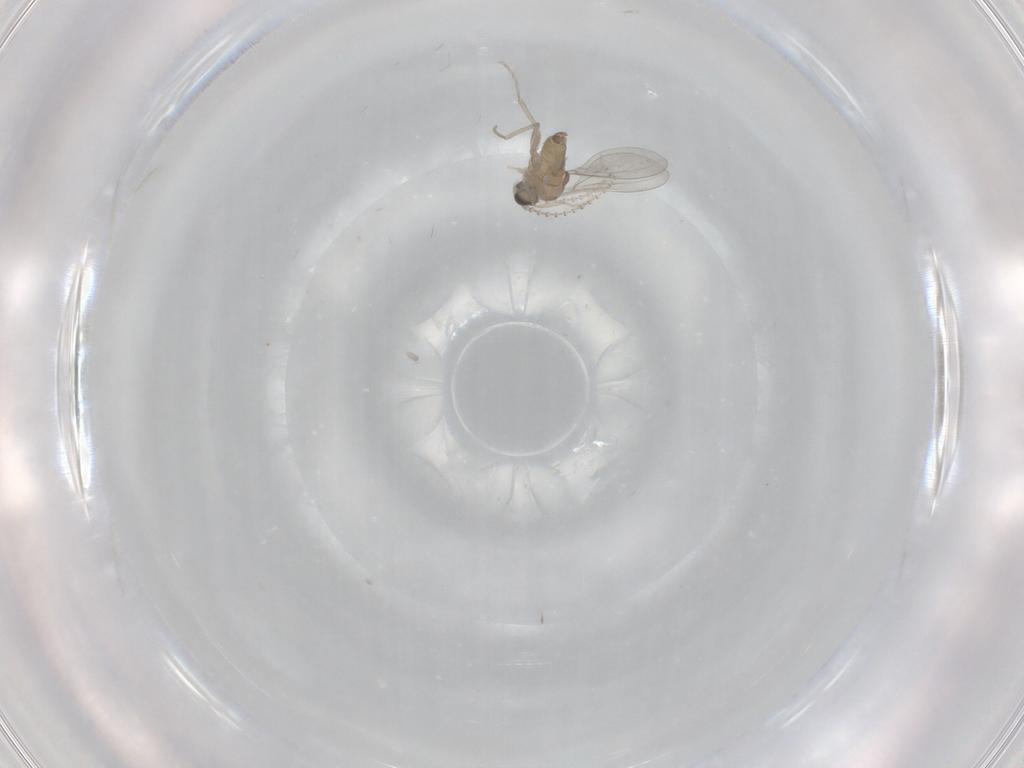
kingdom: Animalia
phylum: Arthropoda
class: Insecta
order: Diptera
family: Cecidomyiidae
